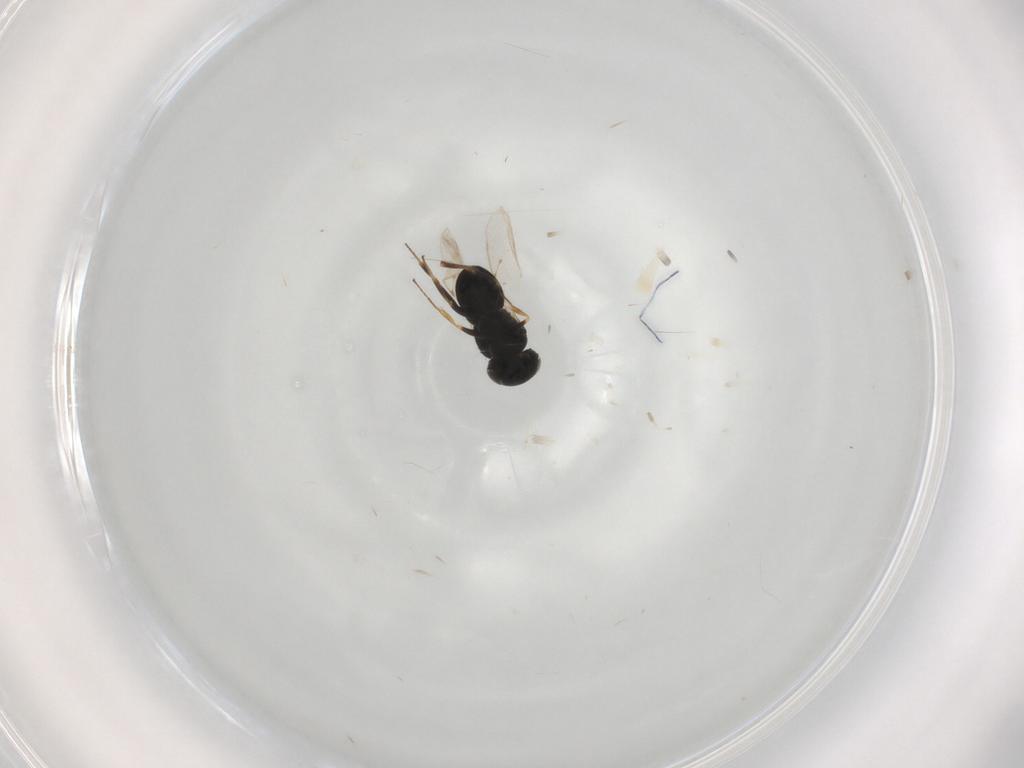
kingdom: Animalia
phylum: Arthropoda
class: Insecta
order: Hymenoptera
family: Scelionidae
